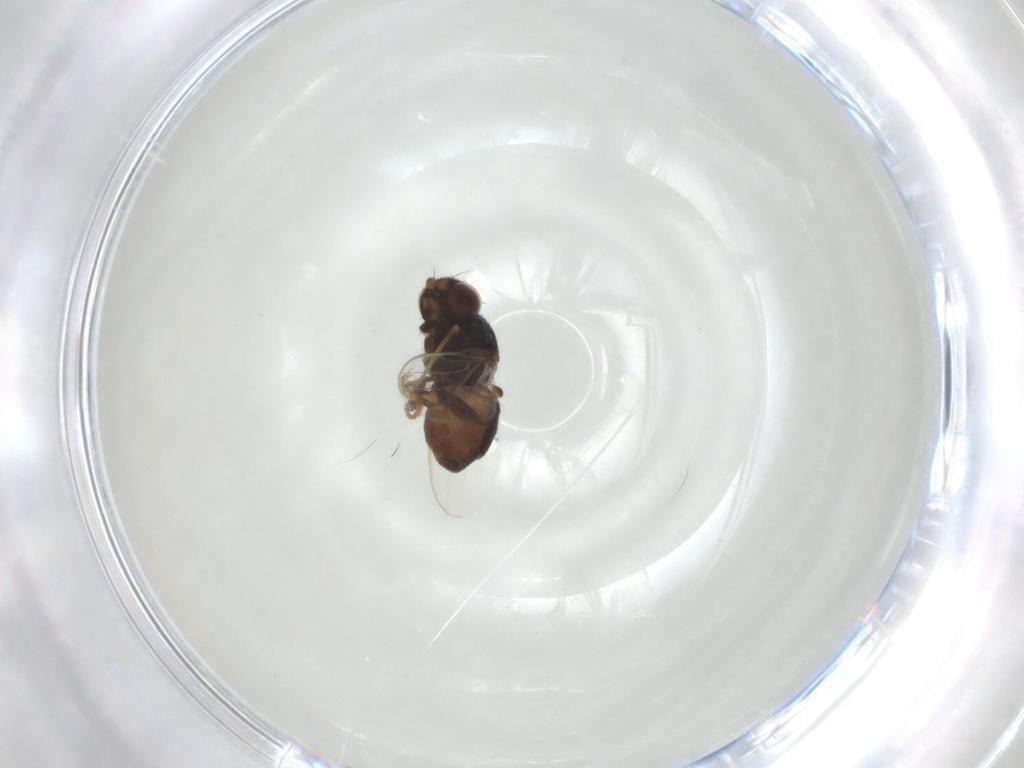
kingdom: Animalia
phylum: Arthropoda
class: Insecta
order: Diptera
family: Chloropidae
